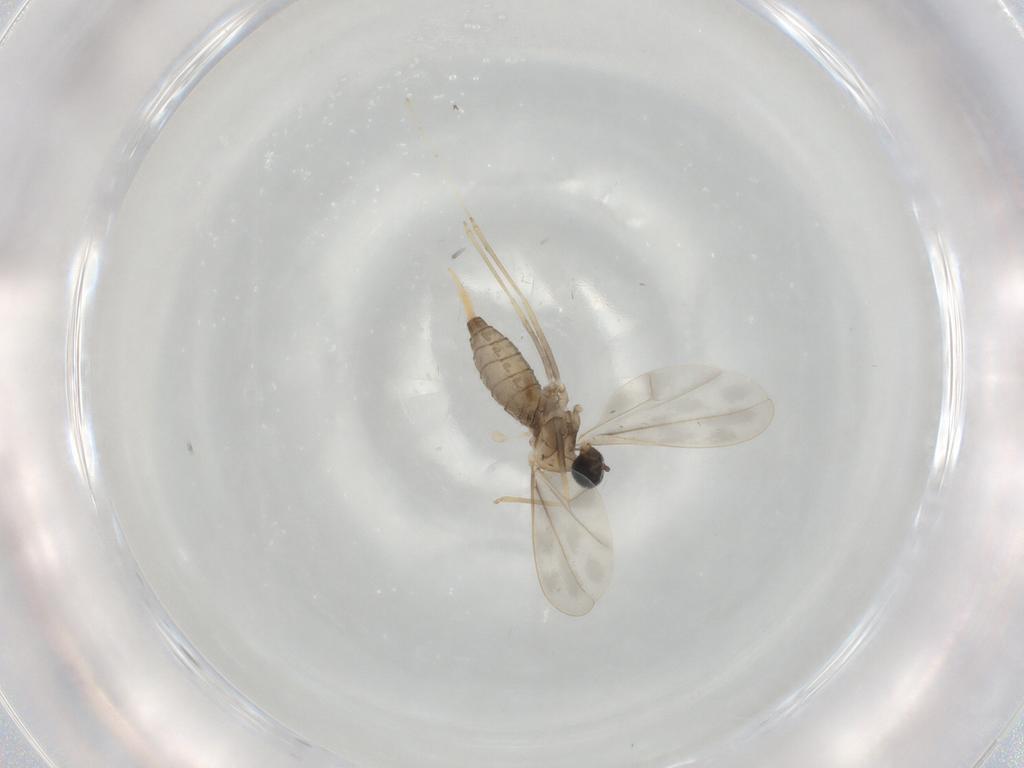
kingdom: Animalia
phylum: Arthropoda
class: Insecta
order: Diptera
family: Cecidomyiidae
